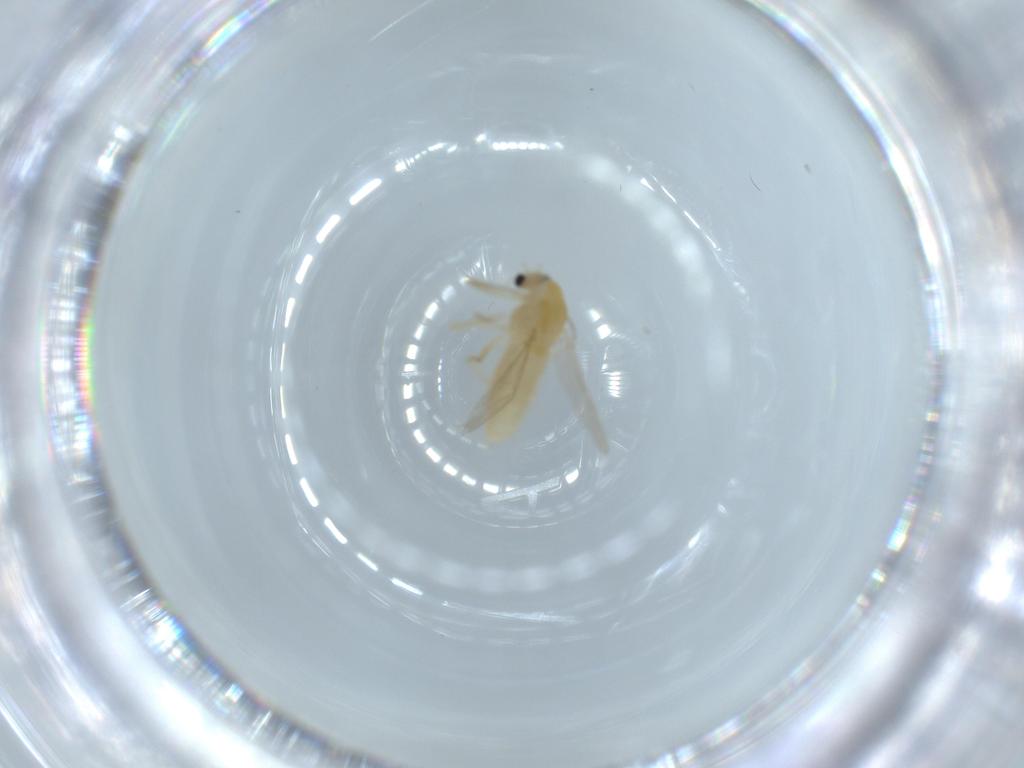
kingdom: Animalia
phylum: Arthropoda
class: Insecta
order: Diptera
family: Chironomidae
